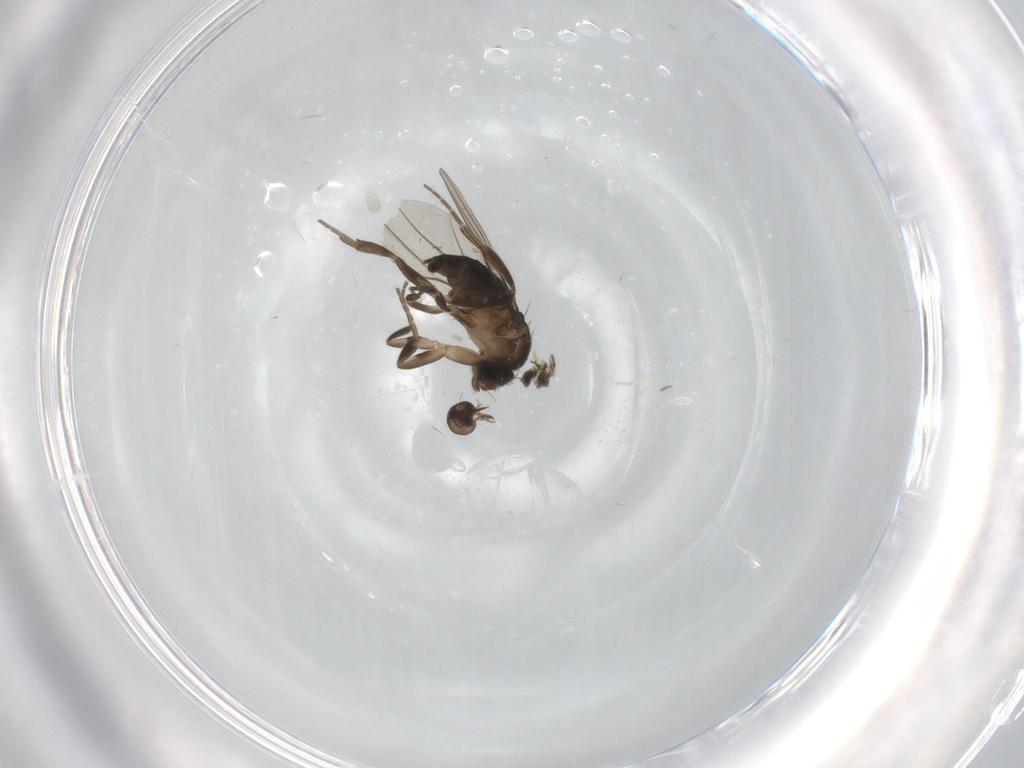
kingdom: Animalia
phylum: Arthropoda
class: Insecta
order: Diptera
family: Phoridae
